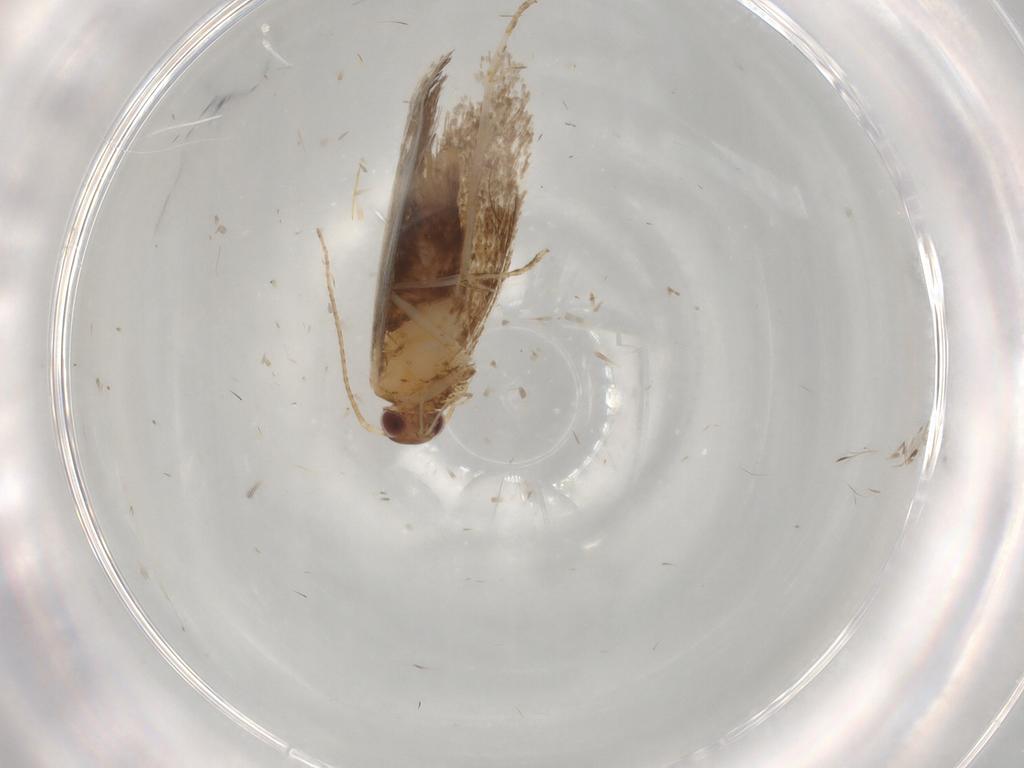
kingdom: Animalia
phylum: Arthropoda
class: Insecta
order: Lepidoptera
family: Oecophoridae
